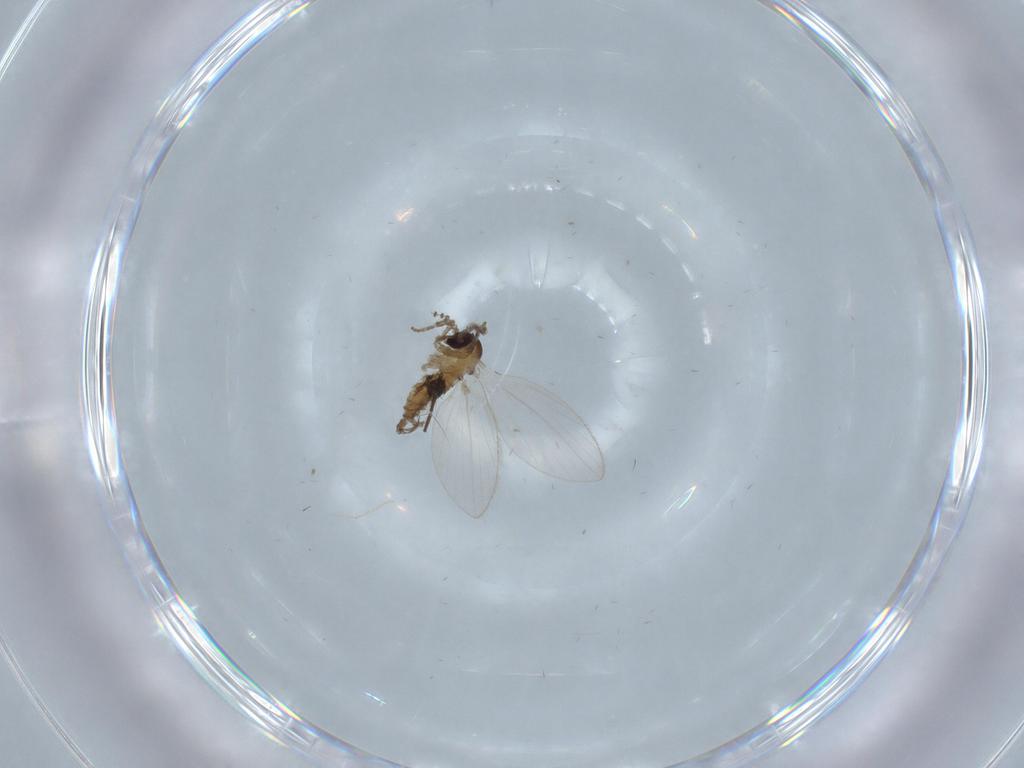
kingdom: Animalia
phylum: Arthropoda
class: Insecta
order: Diptera
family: Psychodidae
